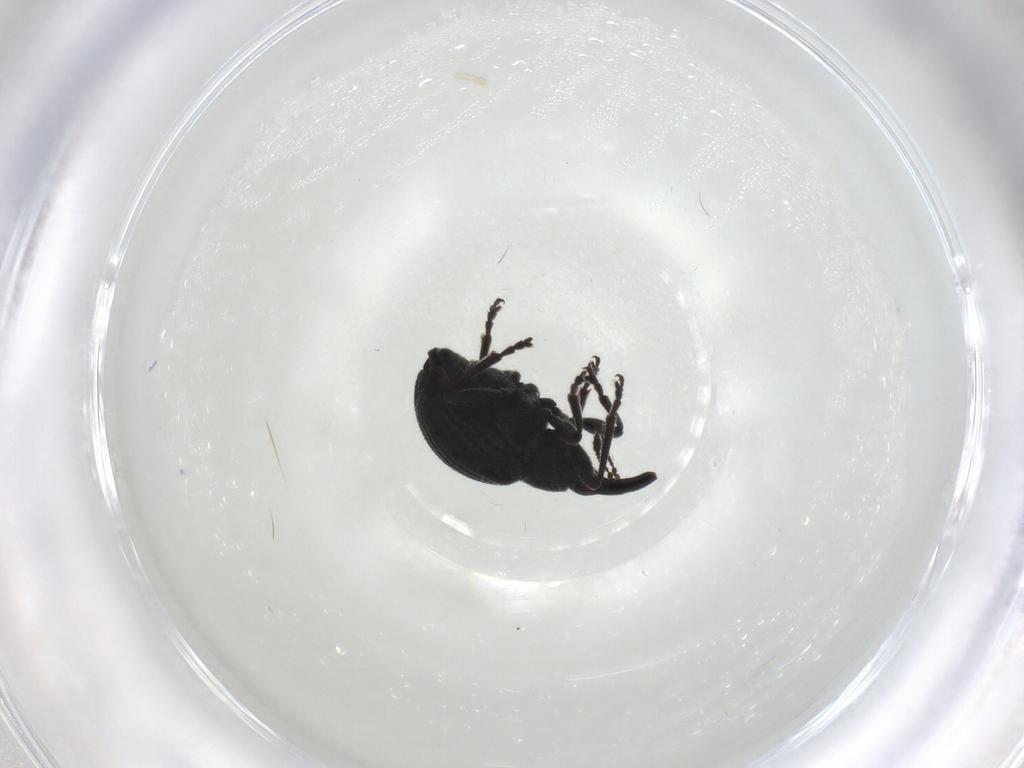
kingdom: Animalia
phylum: Arthropoda
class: Insecta
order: Coleoptera
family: Brentidae
